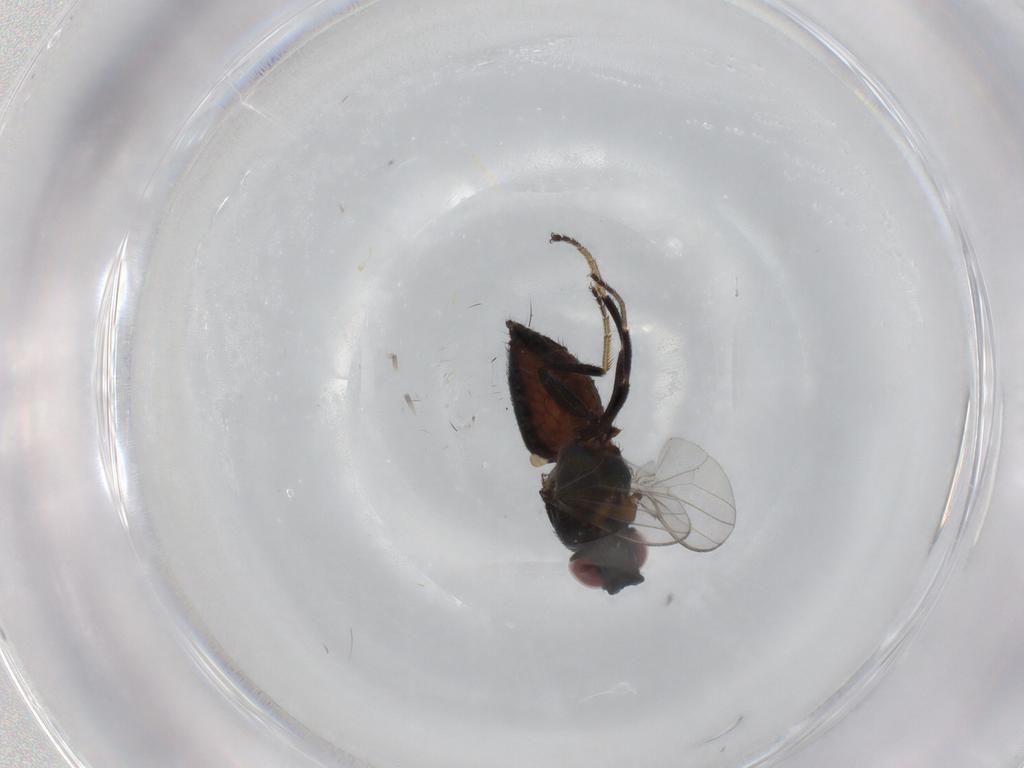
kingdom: Animalia
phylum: Arthropoda
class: Insecta
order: Diptera
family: Milichiidae
